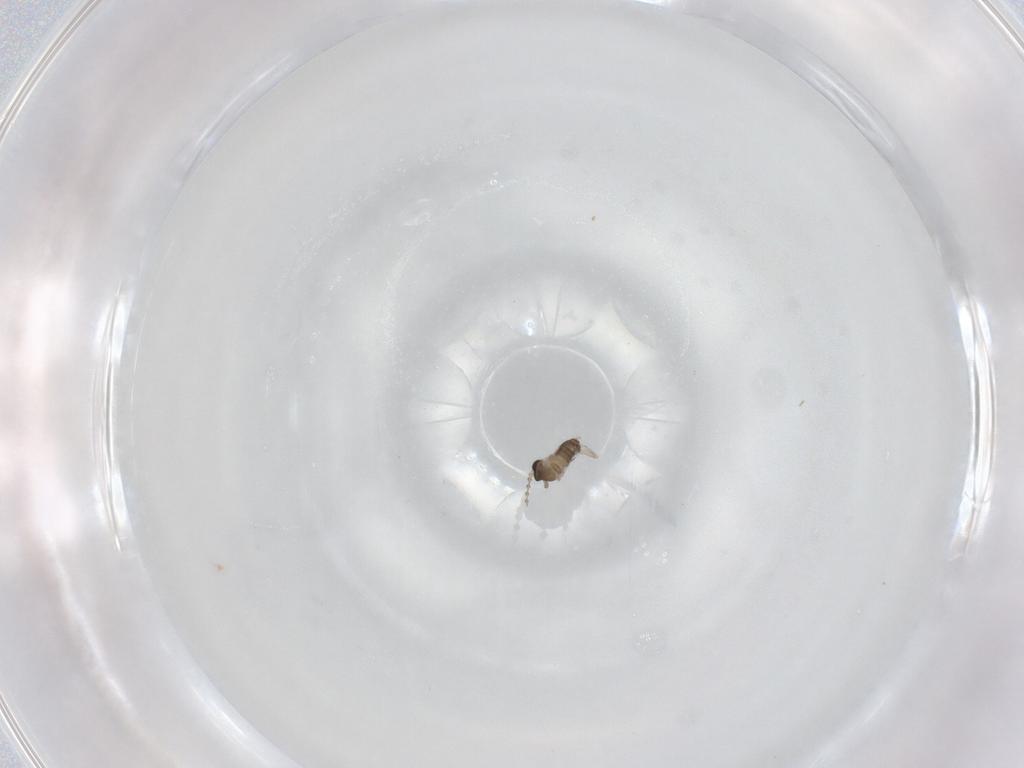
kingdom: Animalia
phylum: Arthropoda
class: Insecta
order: Diptera
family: Cecidomyiidae
